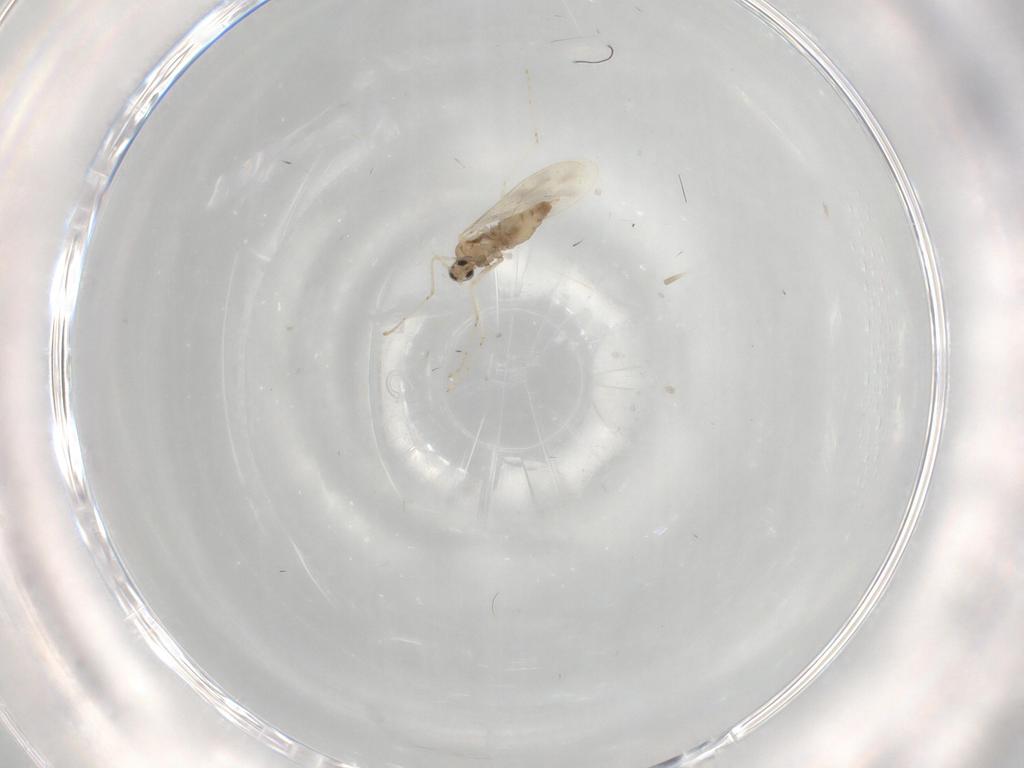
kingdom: Animalia
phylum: Arthropoda
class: Insecta
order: Diptera
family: Cecidomyiidae
